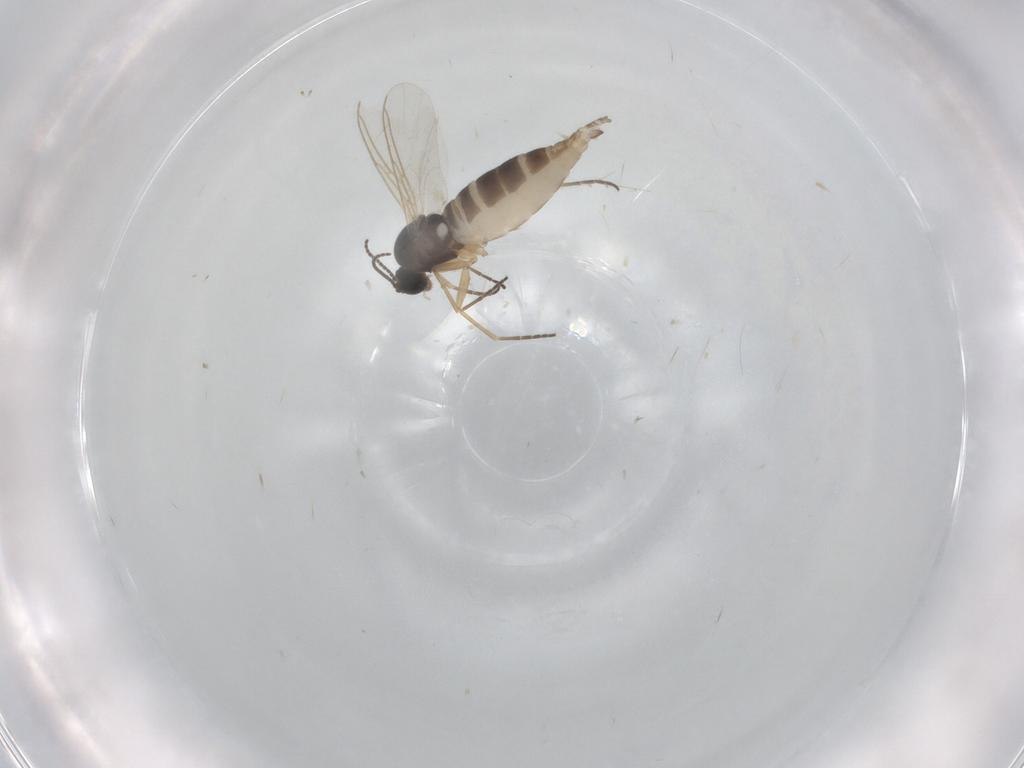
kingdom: Animalia
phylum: Arthropoda
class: Insecta
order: Diptera
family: Sciaridae
